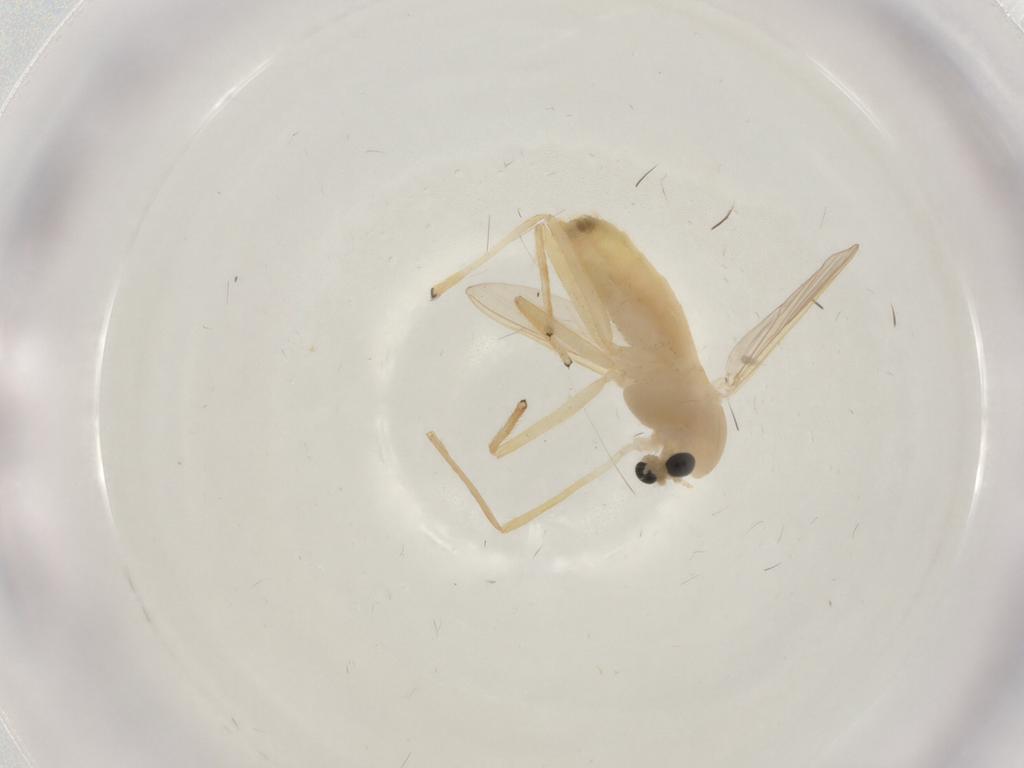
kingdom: Animalia
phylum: Arthropoda
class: Insecta
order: Diptera
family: Chironomidae
